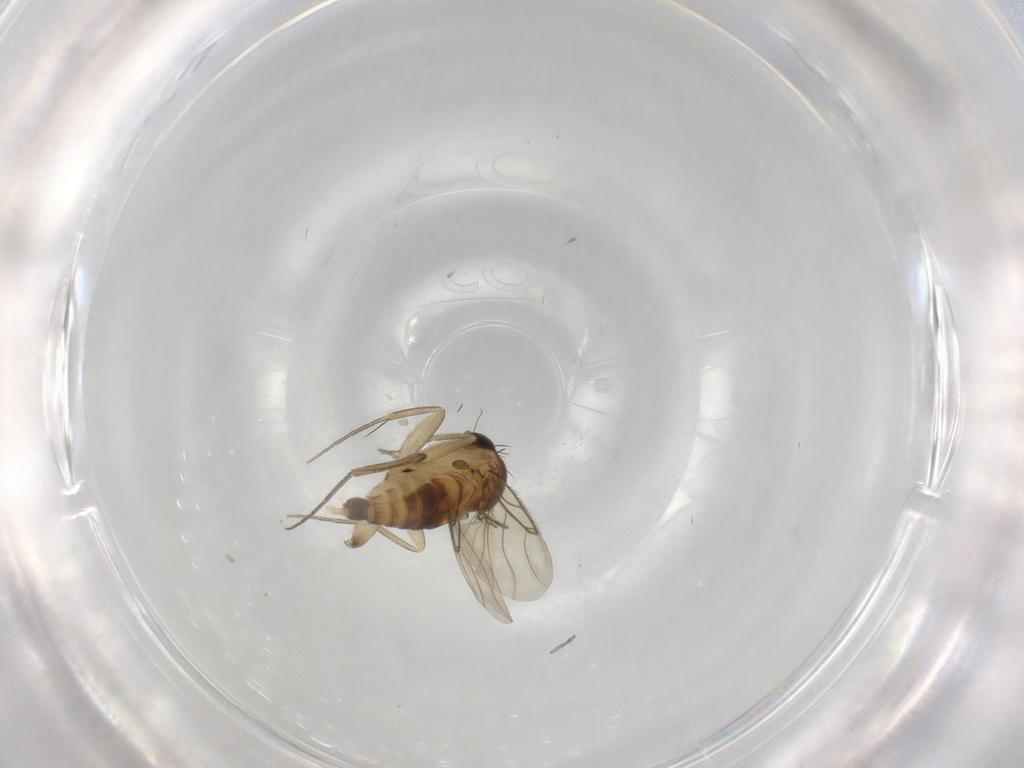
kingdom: Animalia
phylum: Arthropoda
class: Insecta
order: Diptera
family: Phoridae
